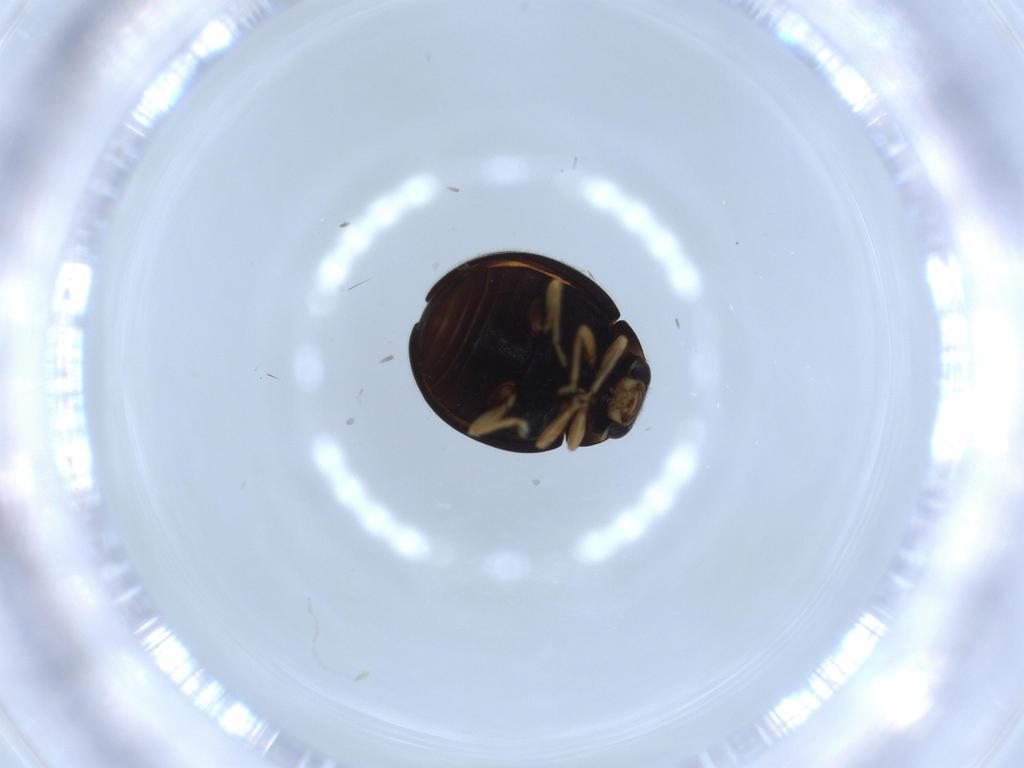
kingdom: Animalia
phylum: Arthropoda
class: Insecta
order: Coleoptera
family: Coccinellidae
